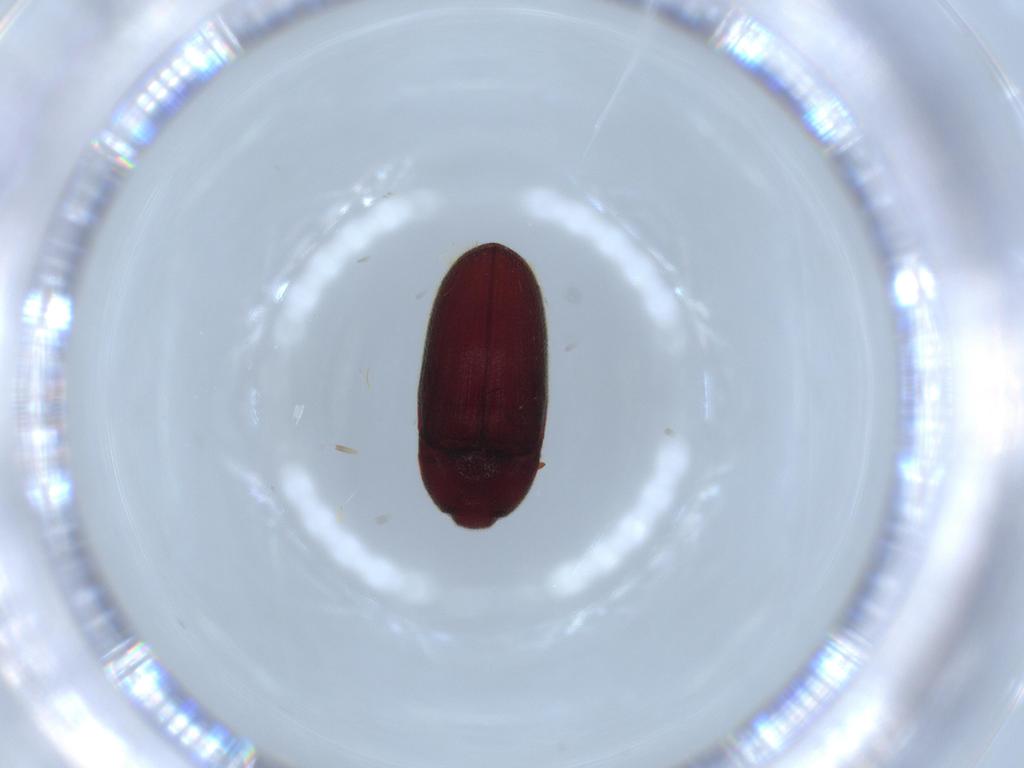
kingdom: Animalia
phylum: Arthropoda
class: Insecta
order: Coleoptera
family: Throscidae
